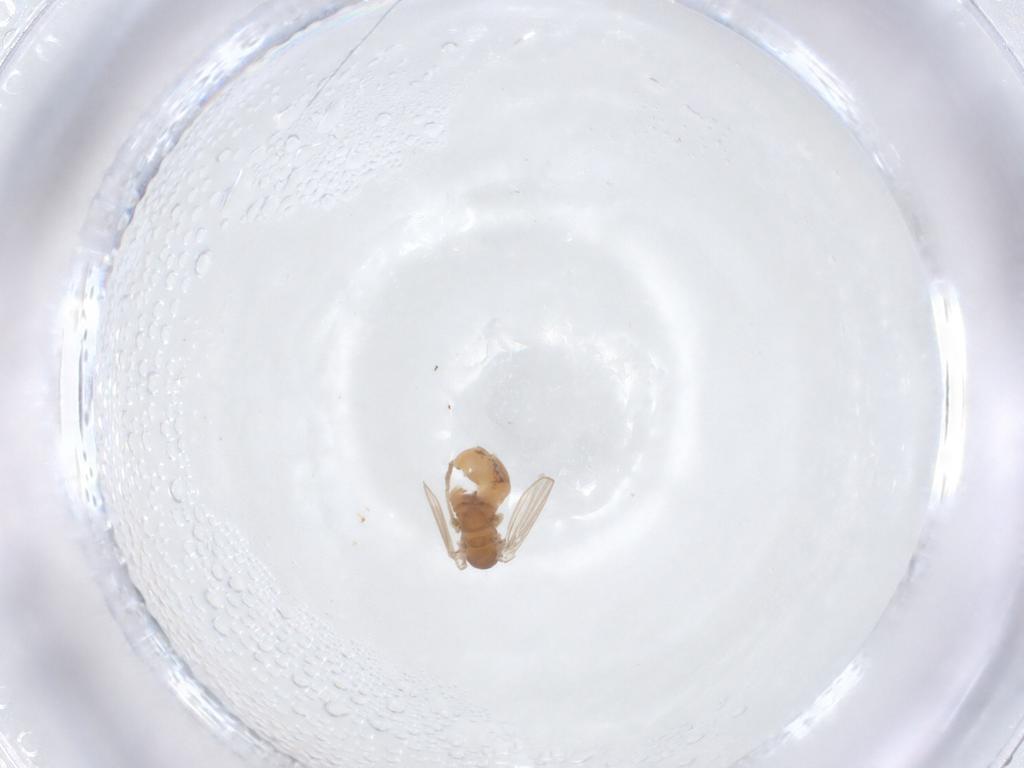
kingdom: Animalia
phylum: Arthropoda
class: Insecta
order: Diptera
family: Psychodidae
